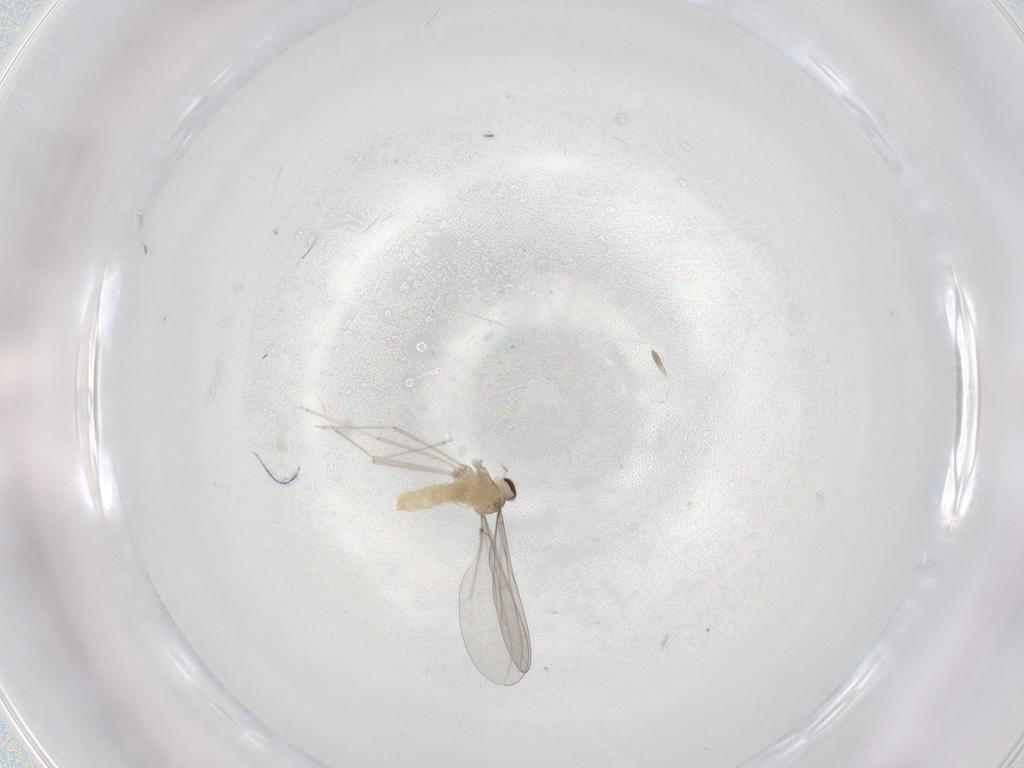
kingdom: Animalia
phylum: Arthropoda
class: Insecta
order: Diptera
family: Cecidomyiidae
